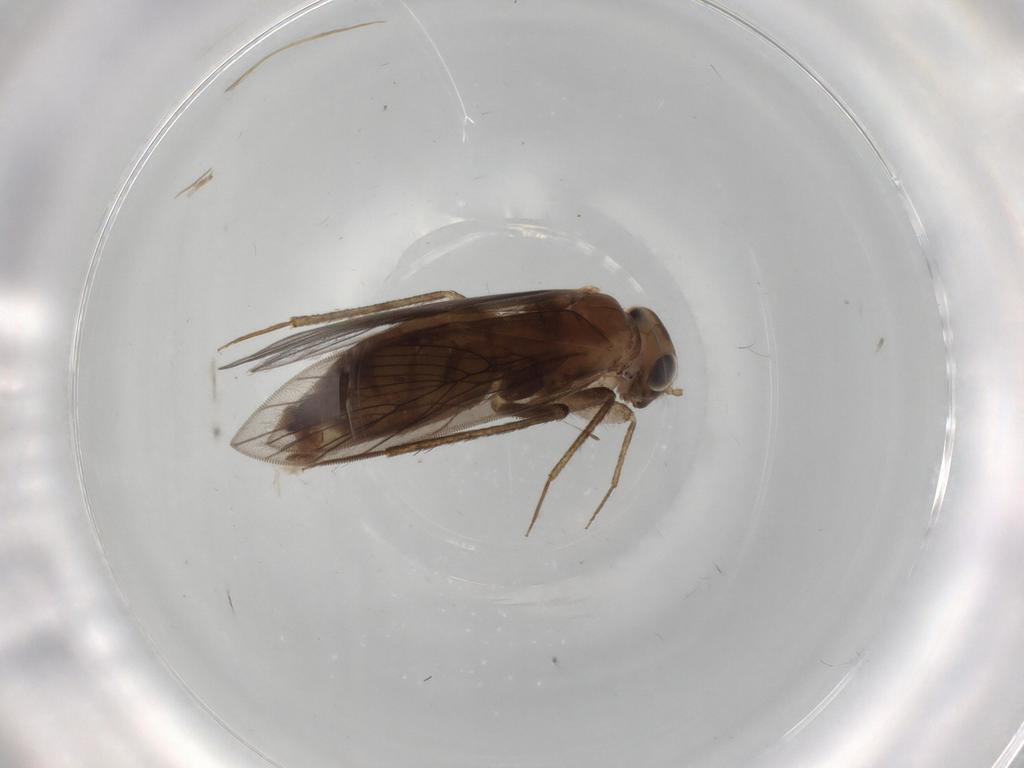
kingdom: Animalia
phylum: Arthropoda
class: Insecta
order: Psocodea
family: Lepidopsocidae
